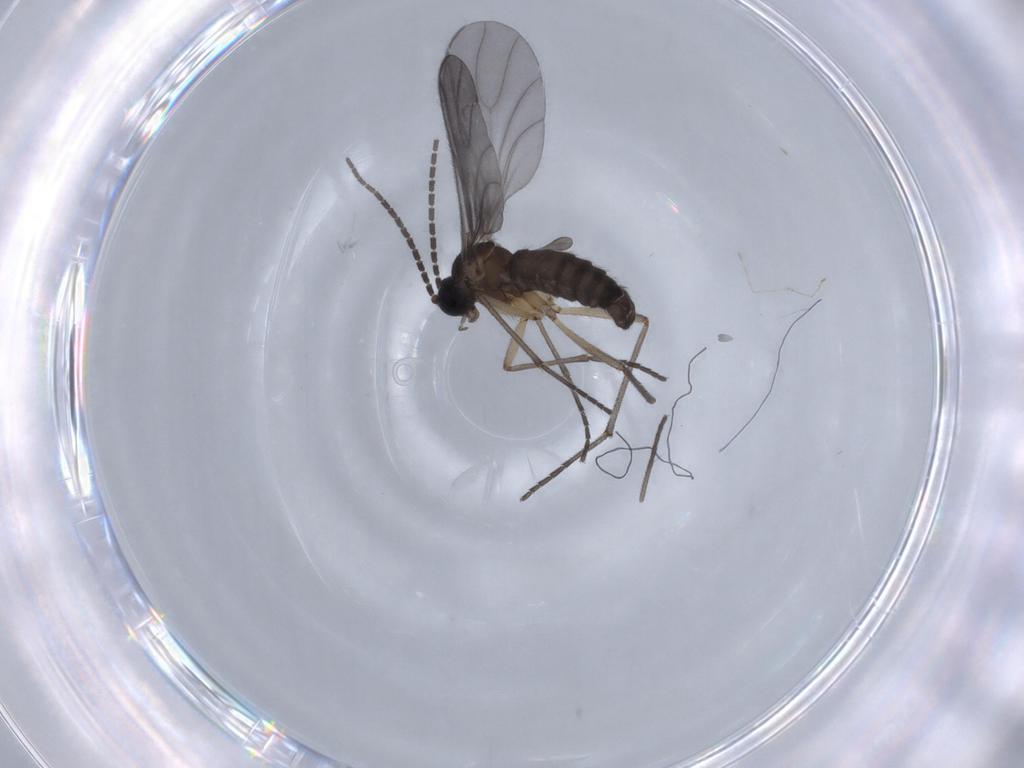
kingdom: Animalia
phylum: Arthropoda
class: Insecta
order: Diptera
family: Sciaridae
